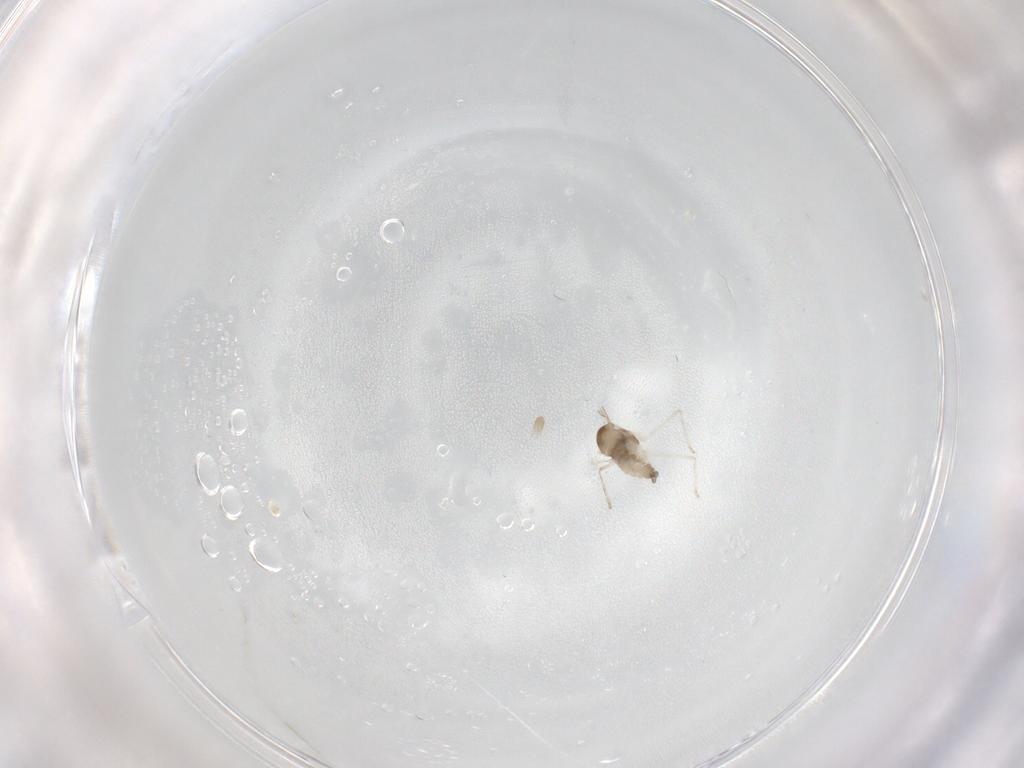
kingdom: Animalia
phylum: Arthropoda
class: Insecta
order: Diptera
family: Cecidomyiidae
